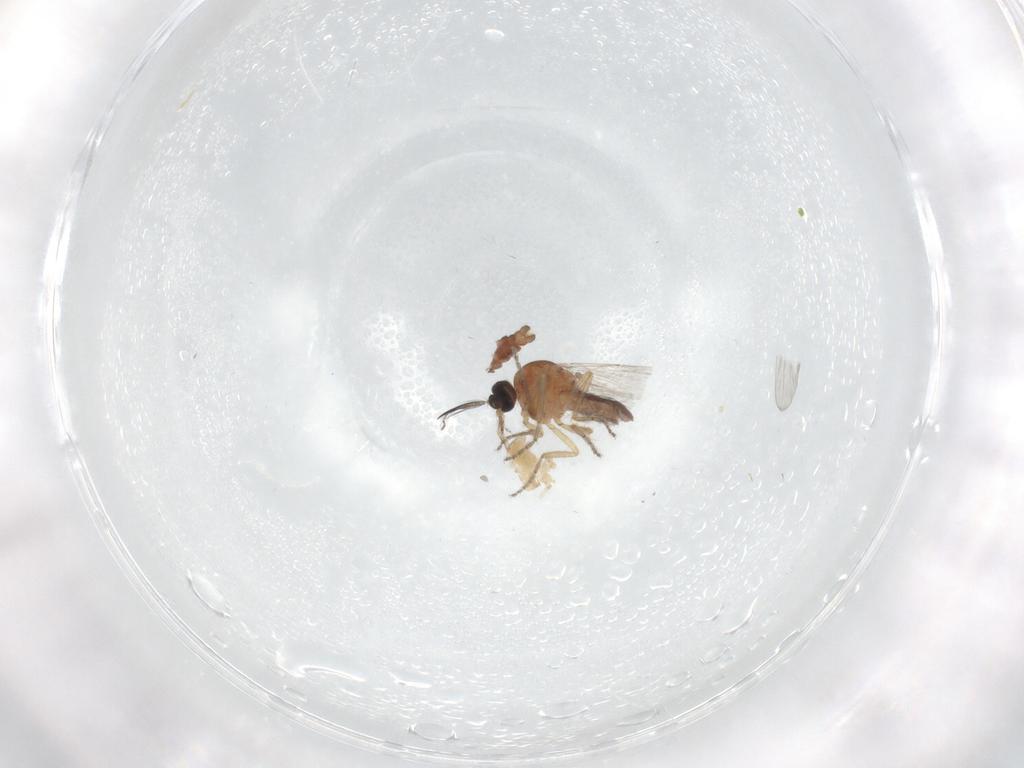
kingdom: Animalia
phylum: Arthropoda
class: Insecta
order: Diptera
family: Ceratopogonidae
